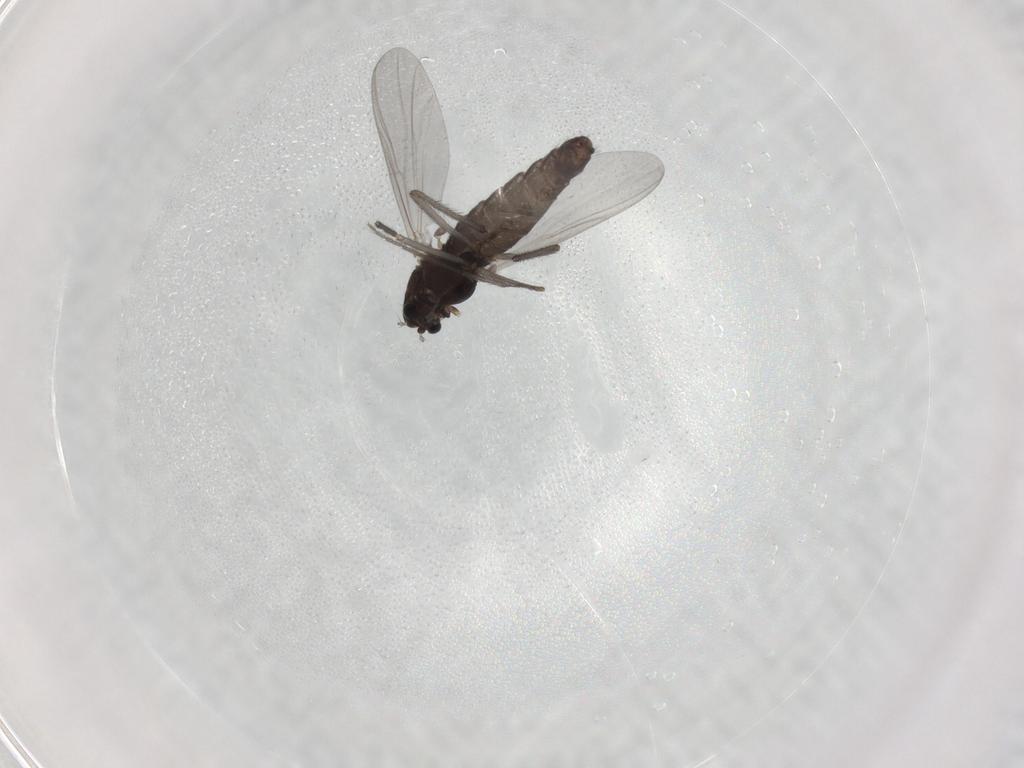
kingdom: Animalia
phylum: Arthropoda
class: Insecta
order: Diptera
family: Chironomidae
